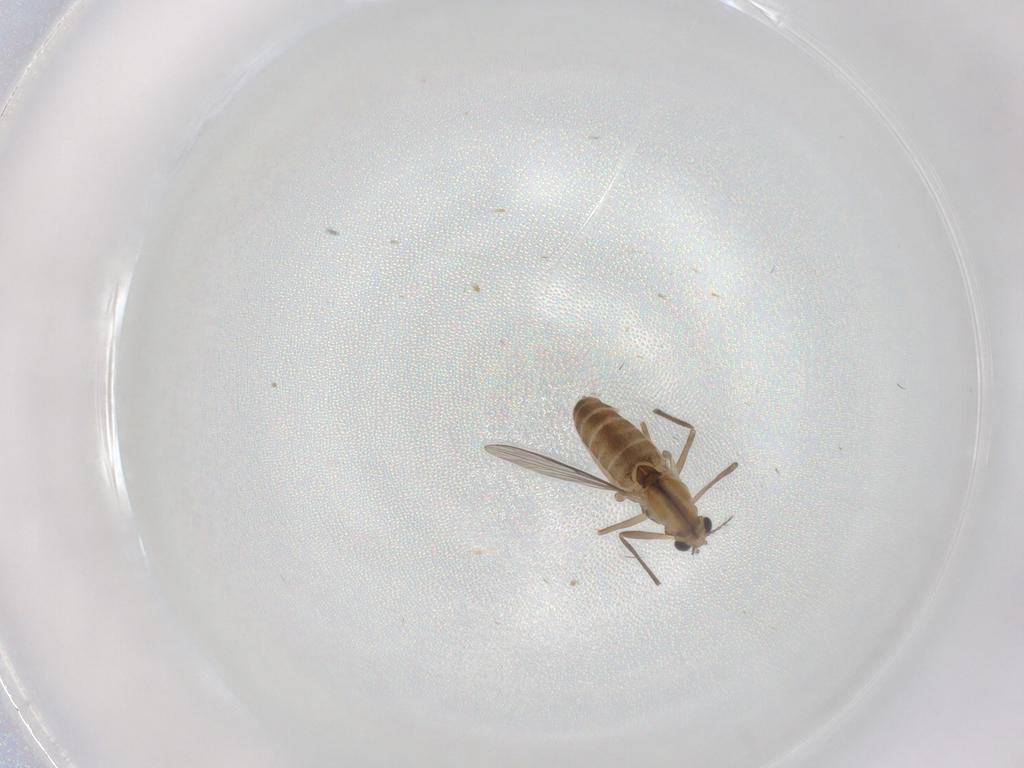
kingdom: Animalia
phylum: Arthropoda
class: Insecta
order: Diptera
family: Chironomidae
